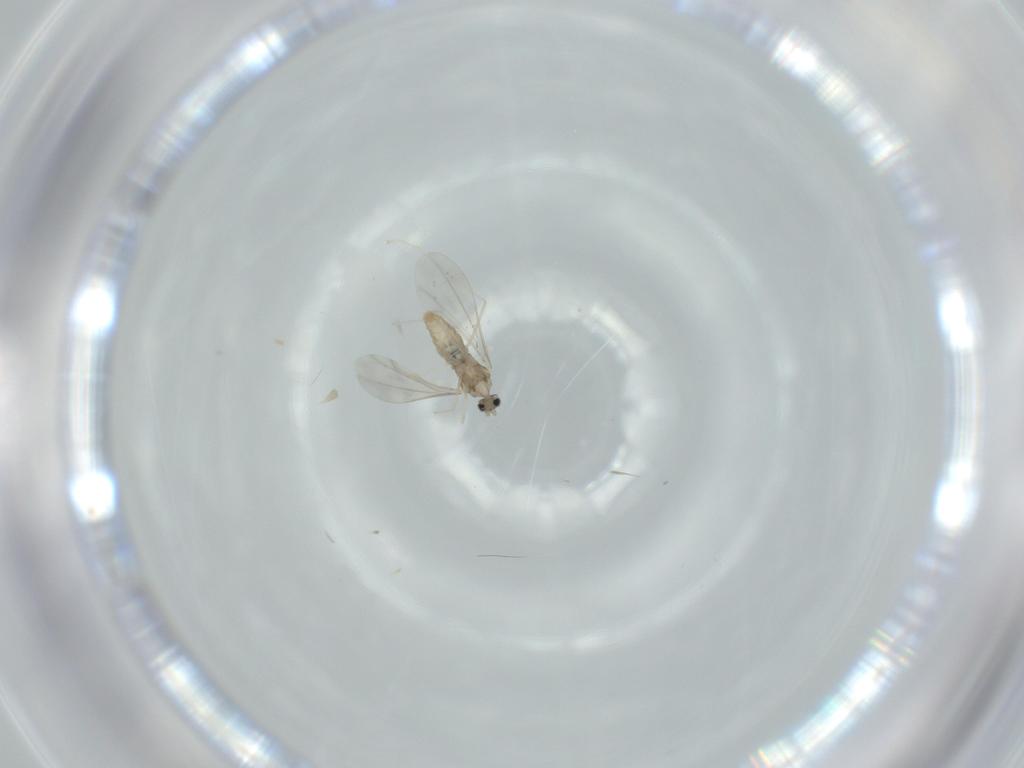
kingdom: Animalia
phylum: Arthropoda
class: Insecta
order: Diptera
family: Cecidomyiidae
